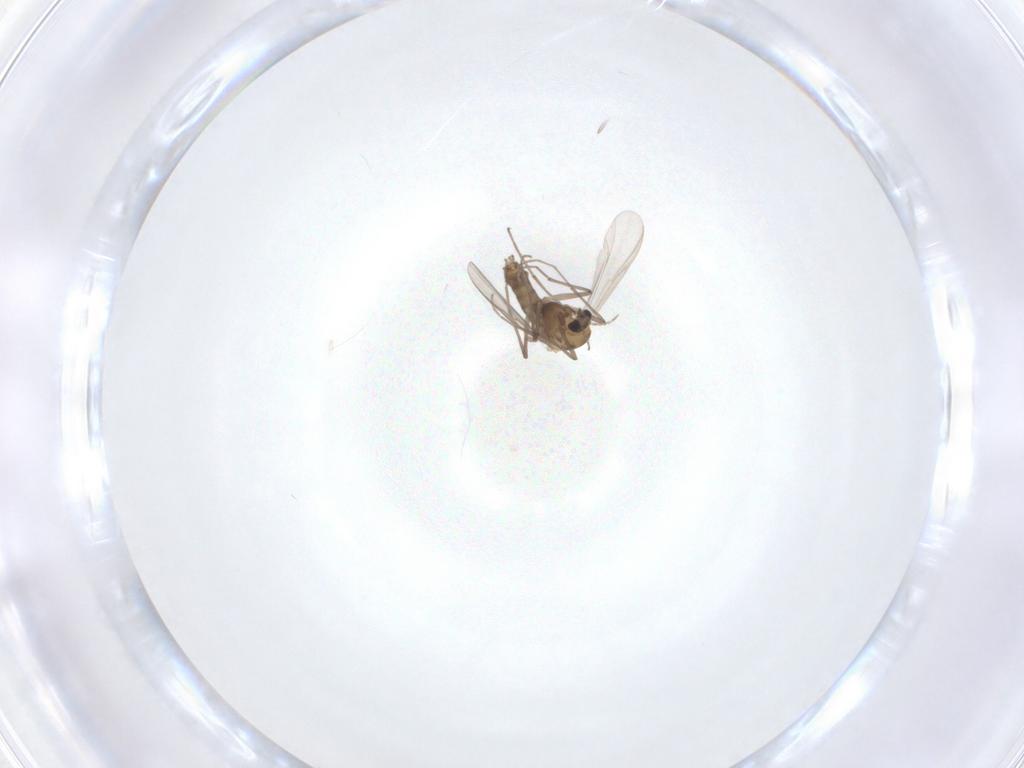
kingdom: Animalia
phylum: Arthropoda
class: Insecta
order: Diptera
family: Chironomidae
